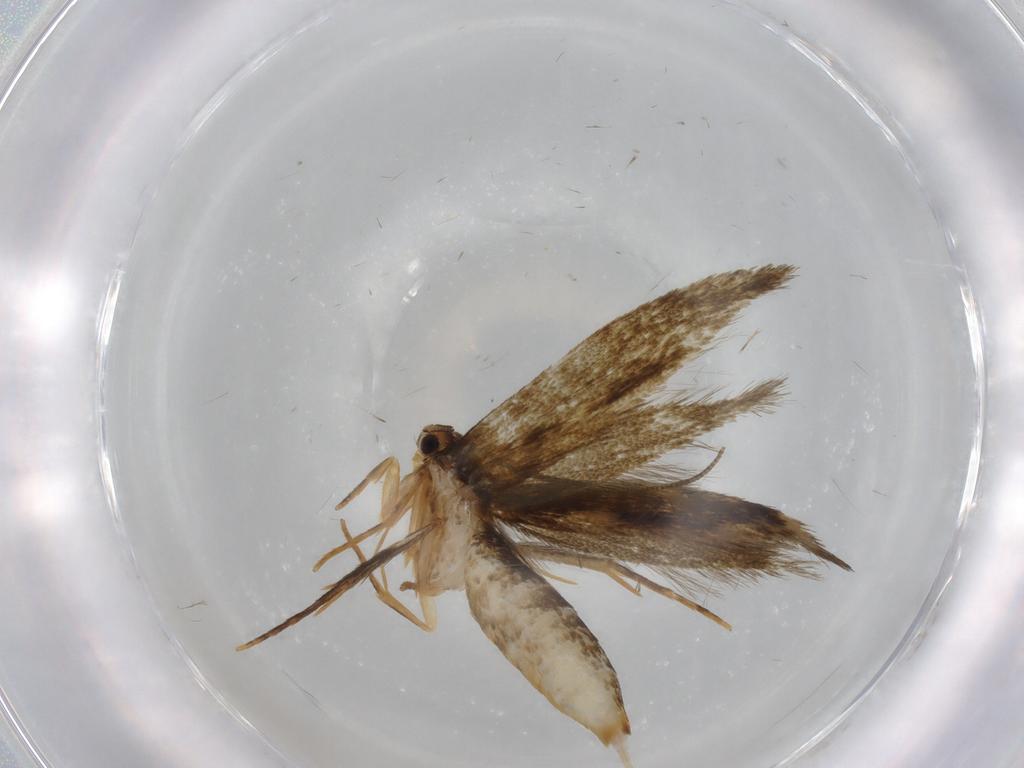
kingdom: Animalia
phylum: Arthropoda
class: Insecta
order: Lepidoptera
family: Tineidae
